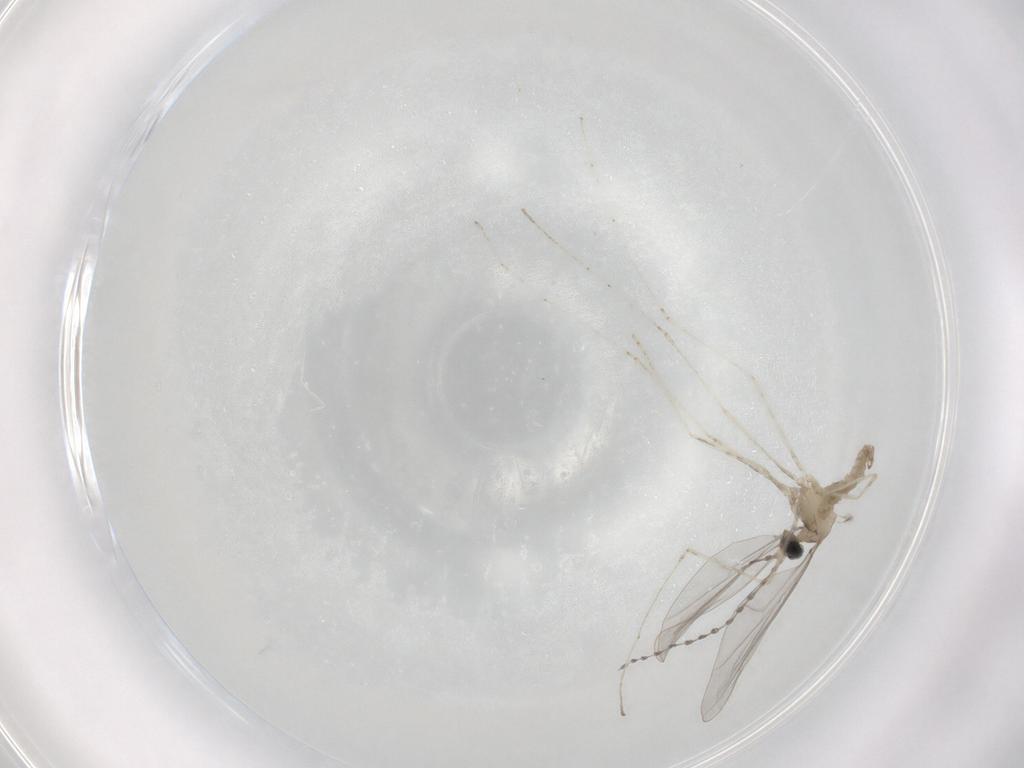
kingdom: Animalia
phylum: Arthropoda
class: Insecta
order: Diptera
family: Cecidomyiidae
